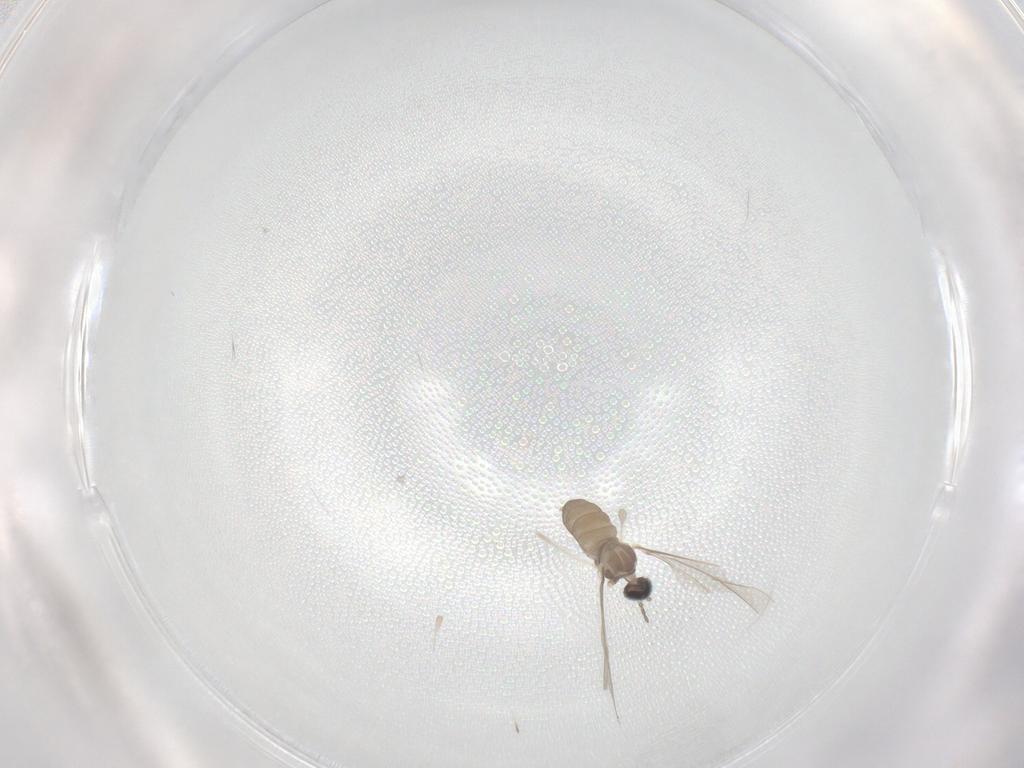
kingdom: Animalia
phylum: Arthropoda
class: Insecta
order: Diptera
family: Cecidomyiidae
